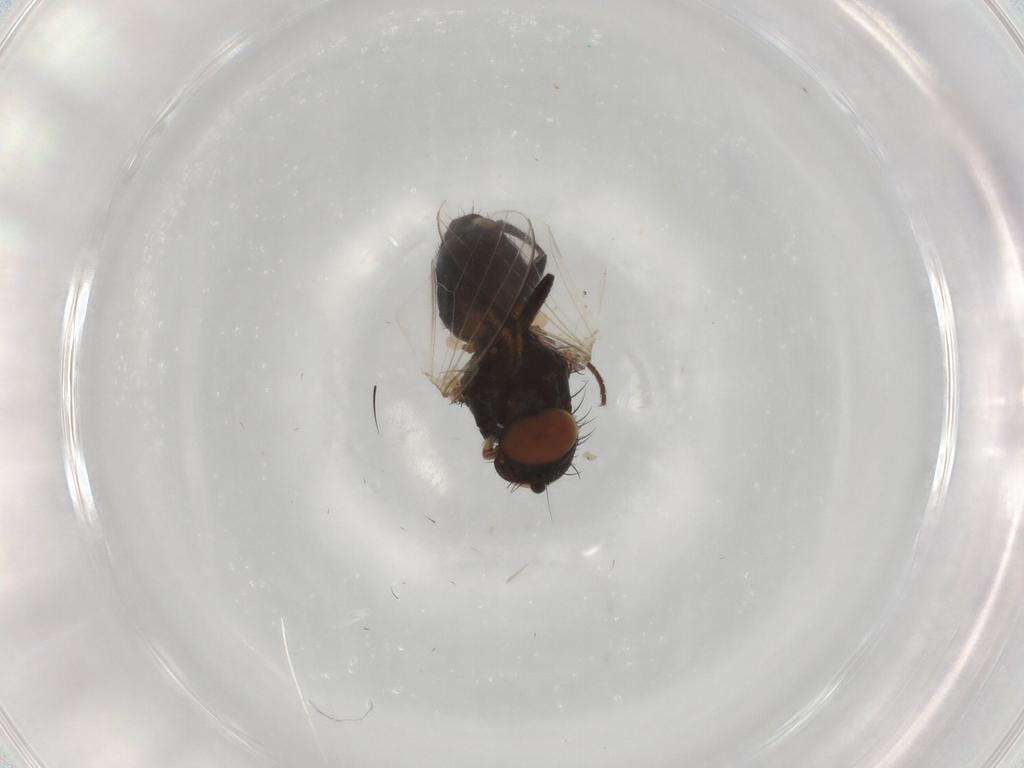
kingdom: Animalia
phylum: Arthropoda
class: Insecta
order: Diptera
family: Milichiidae
